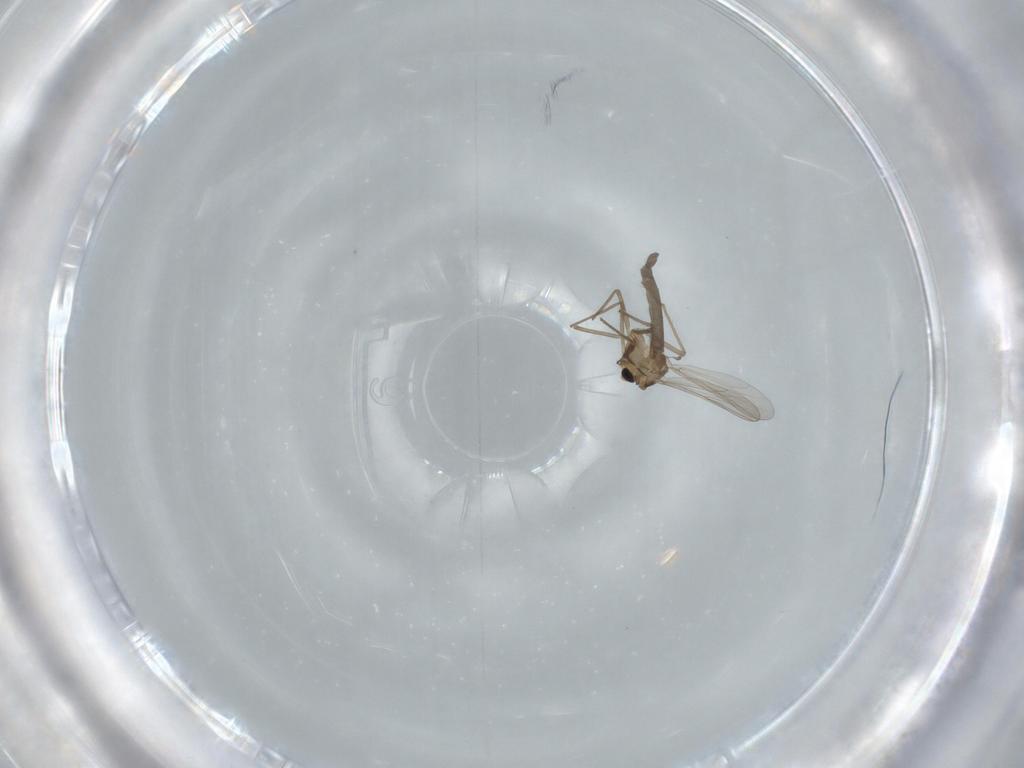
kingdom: Animalia
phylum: Arthropoda
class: Insecta
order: Diptera
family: Chironomidae
